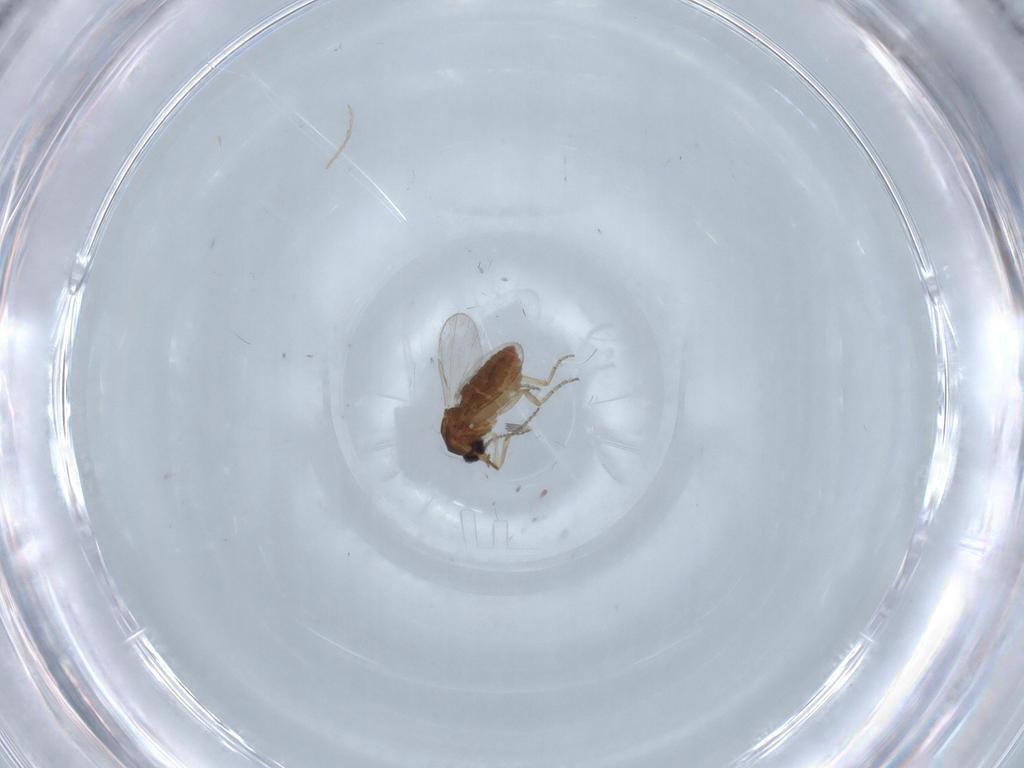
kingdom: Animalia
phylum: Arthropoda
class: Insecta
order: Diptera
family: Ceratopogonidae
